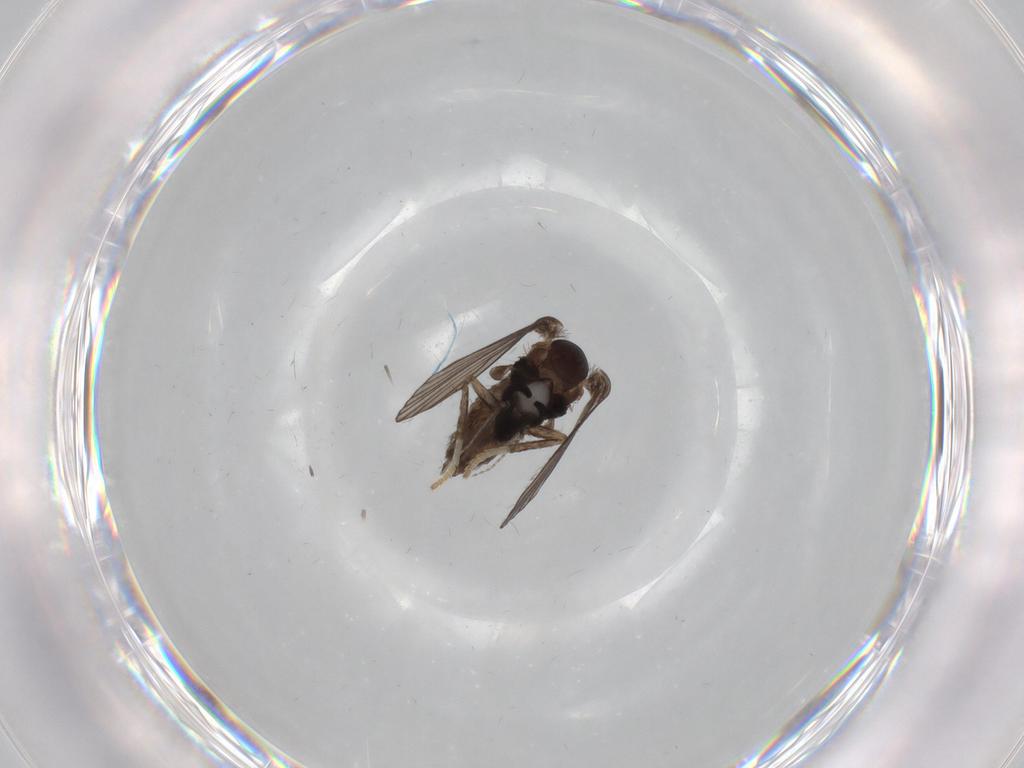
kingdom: Animalia
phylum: Arthropoda
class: Insecta
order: Diptera
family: Psychodidae
